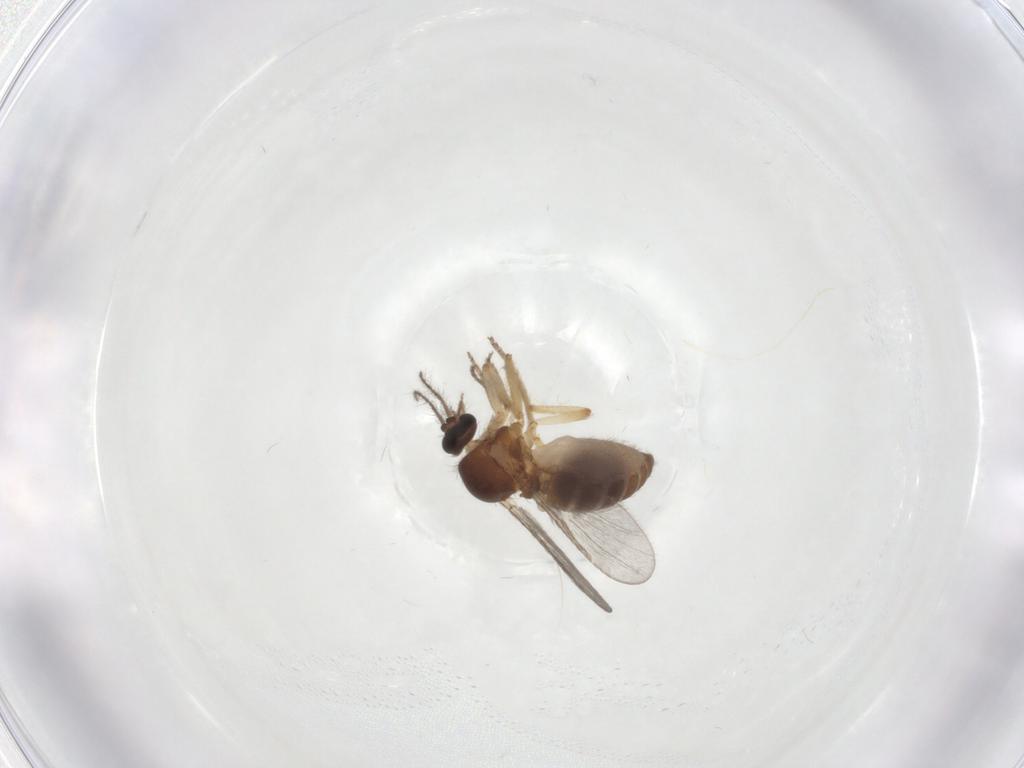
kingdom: Animalia
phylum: Arthropoda
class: Insecta
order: Diptera
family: Ceratopogonidae
